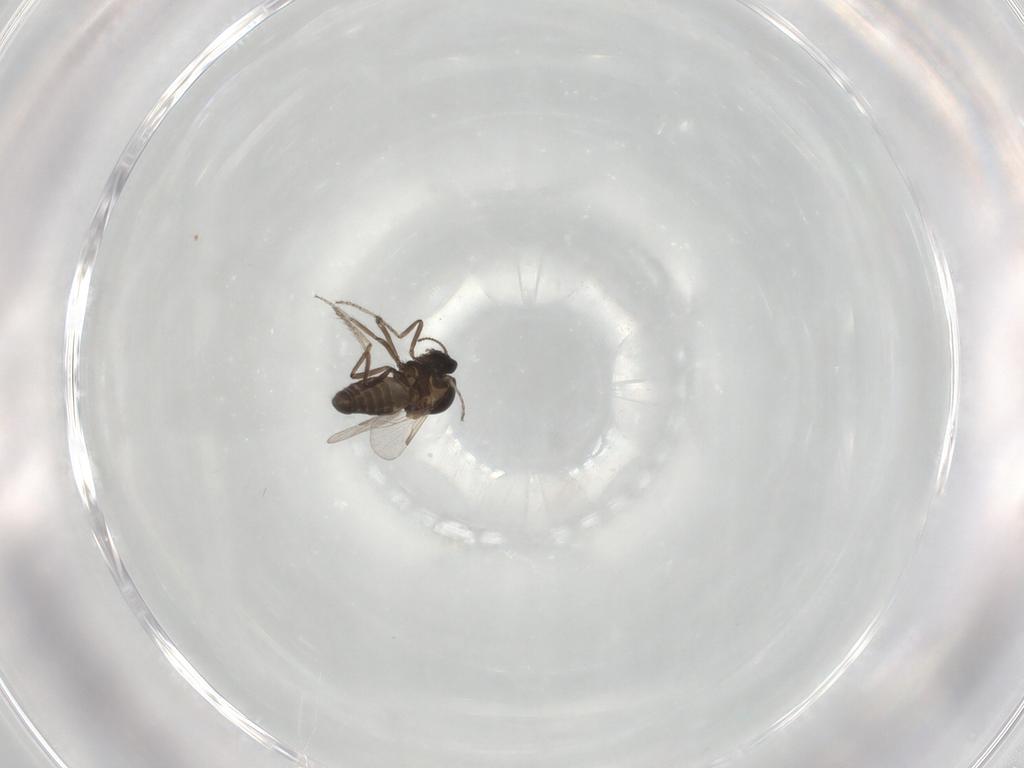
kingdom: Animalia
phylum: Arthropoda
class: Insecta
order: Diptera
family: Ceratopogonidae
